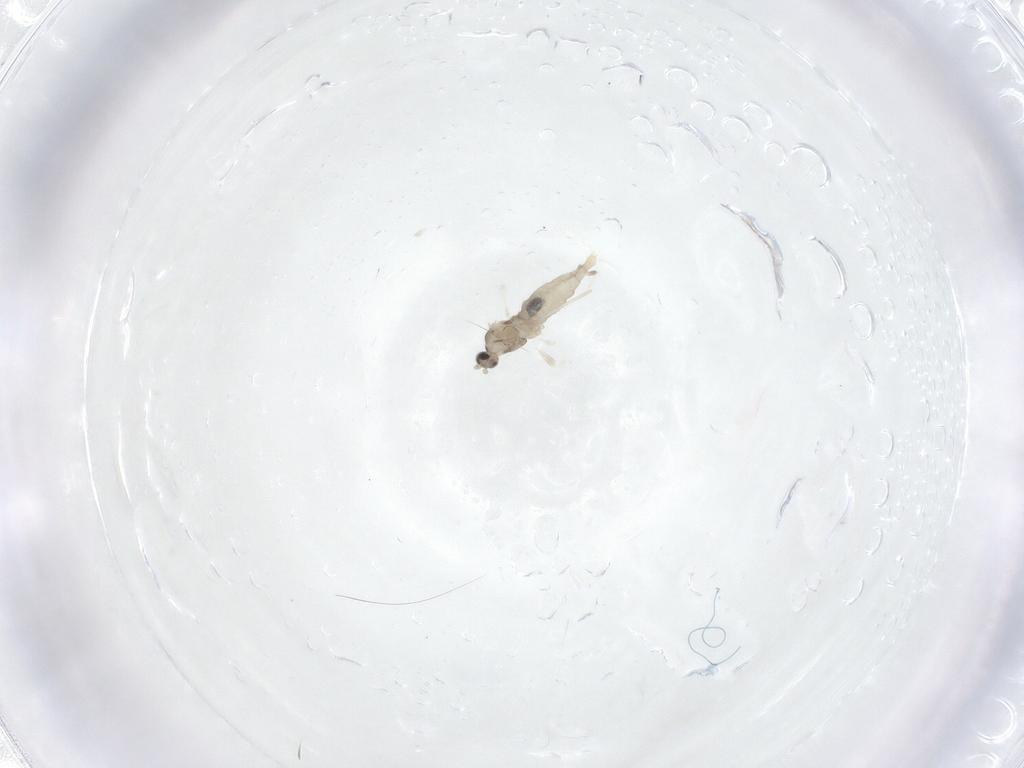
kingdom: Animalia
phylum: Arthropoda
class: Insecta
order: Diptera
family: Cecidomyiidae
